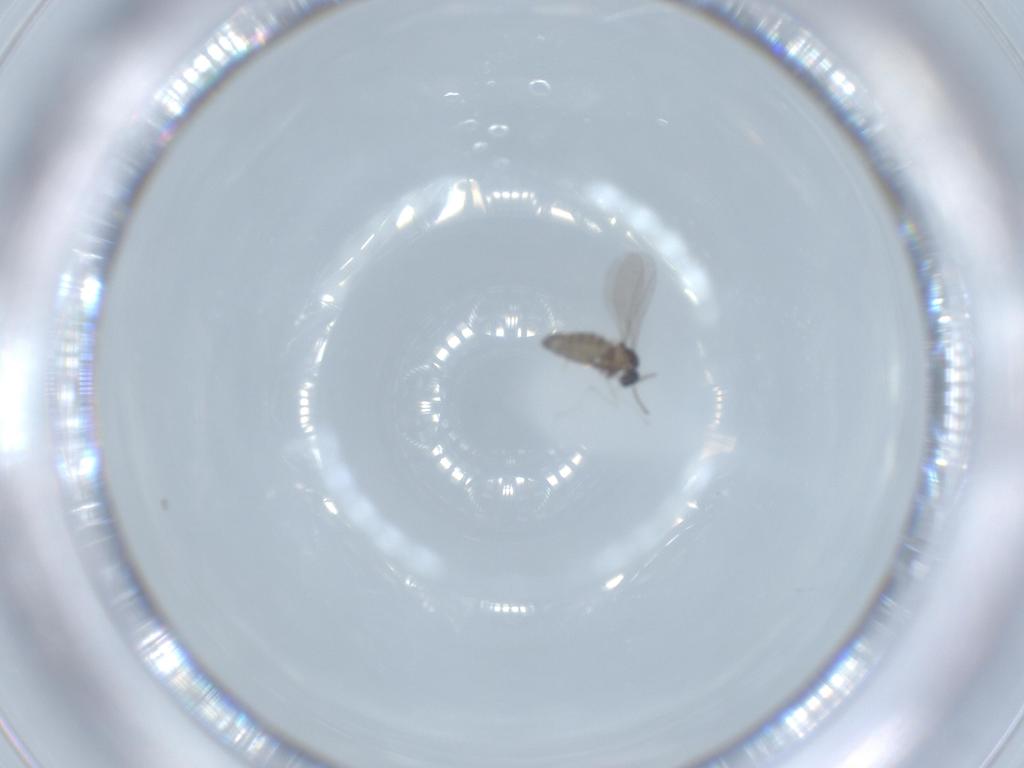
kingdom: Animalia
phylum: Arthropoda
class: Insecta
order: Diptera
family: Cecidomyiidae
